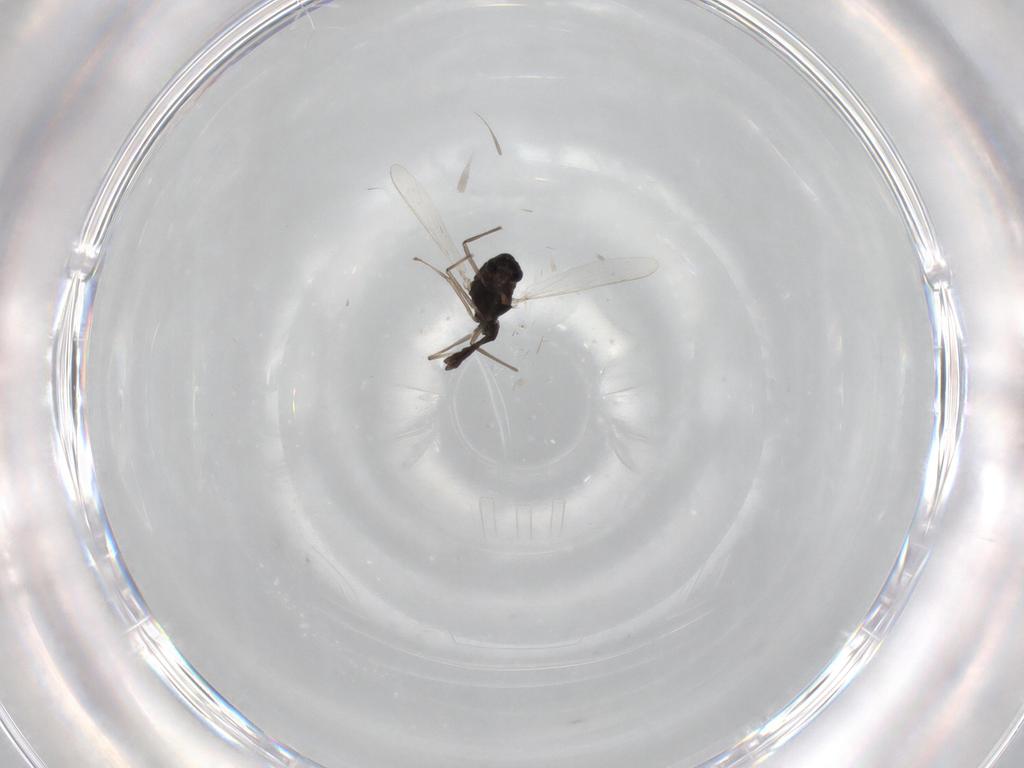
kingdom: Animalia
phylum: Arthropoda
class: Insecta
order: Diptera
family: Chironomidae
